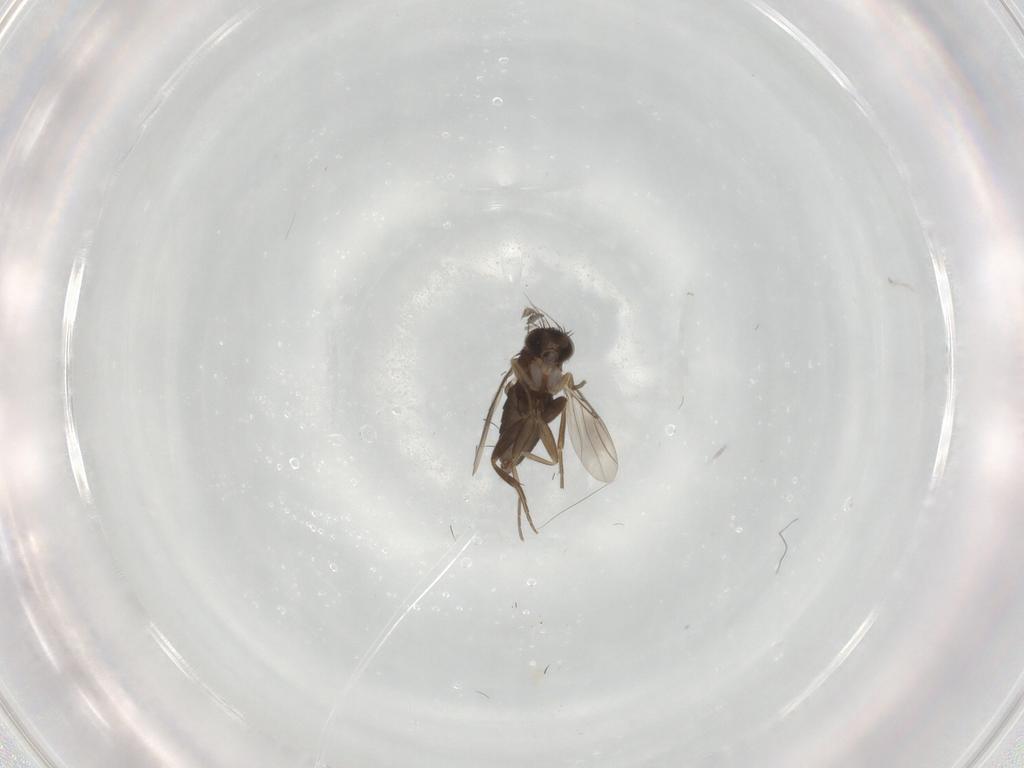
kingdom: Animalia
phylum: Arthropoda
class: Insecta
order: Diptera
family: Phoridae
